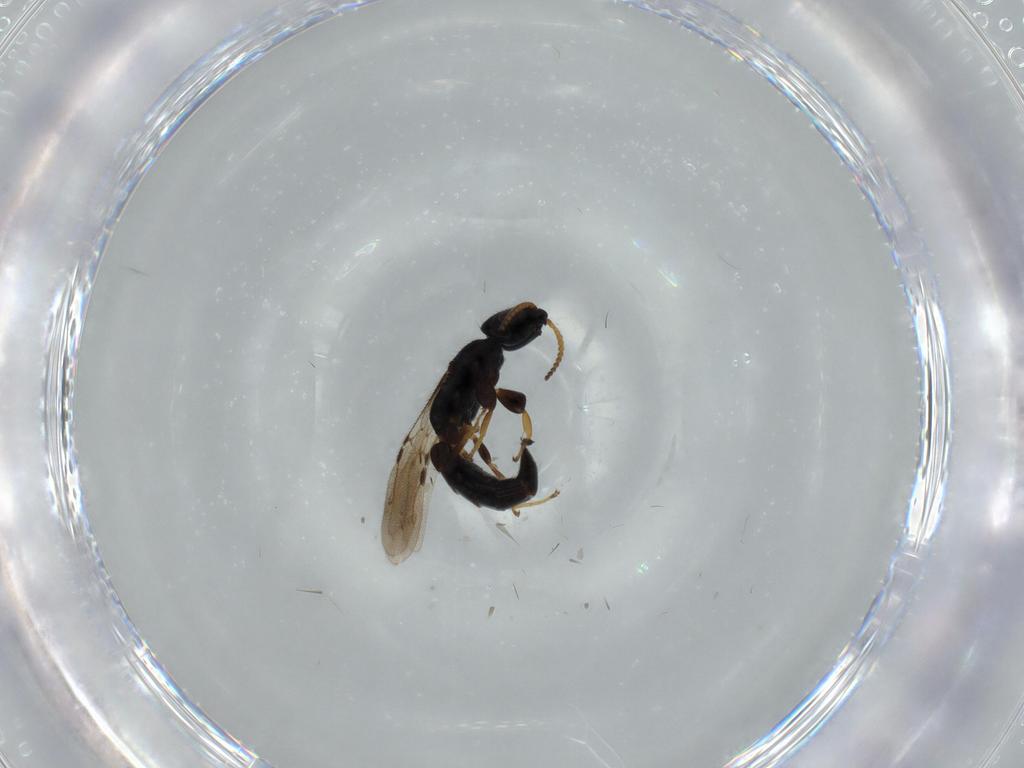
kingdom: Animalia
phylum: Arthropoda
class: Insecta
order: Hymenoptera
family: Bethylidae
